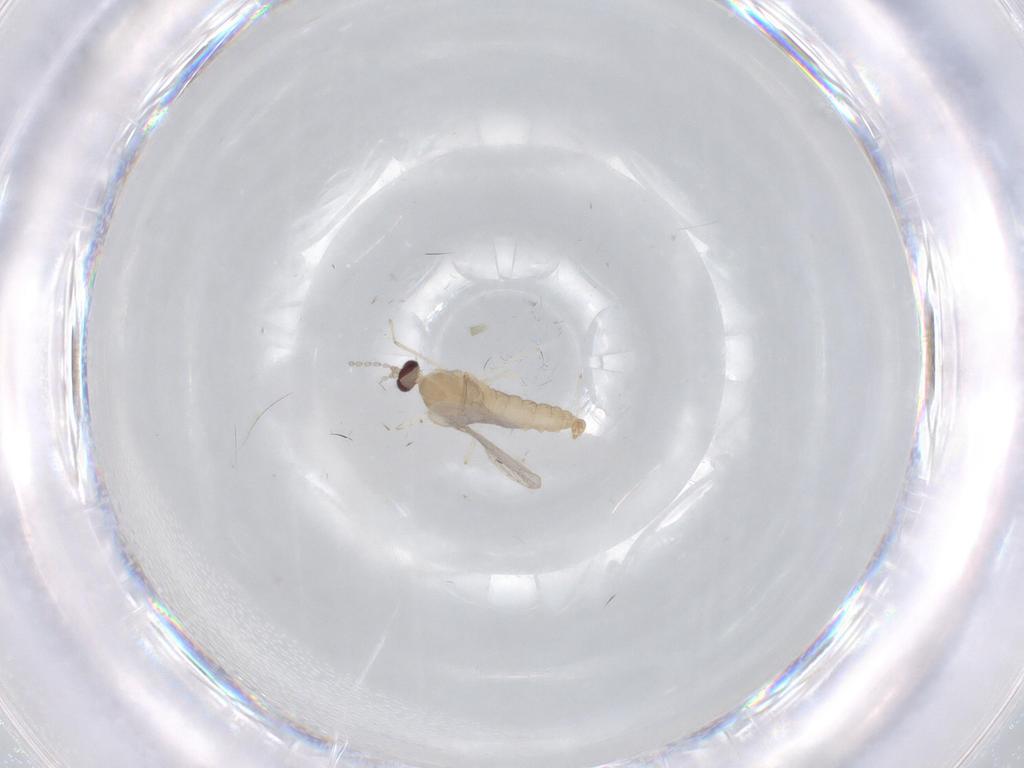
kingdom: Animalia
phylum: Arthropoda
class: Insecta
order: Diptera
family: Cecidomyiidae
